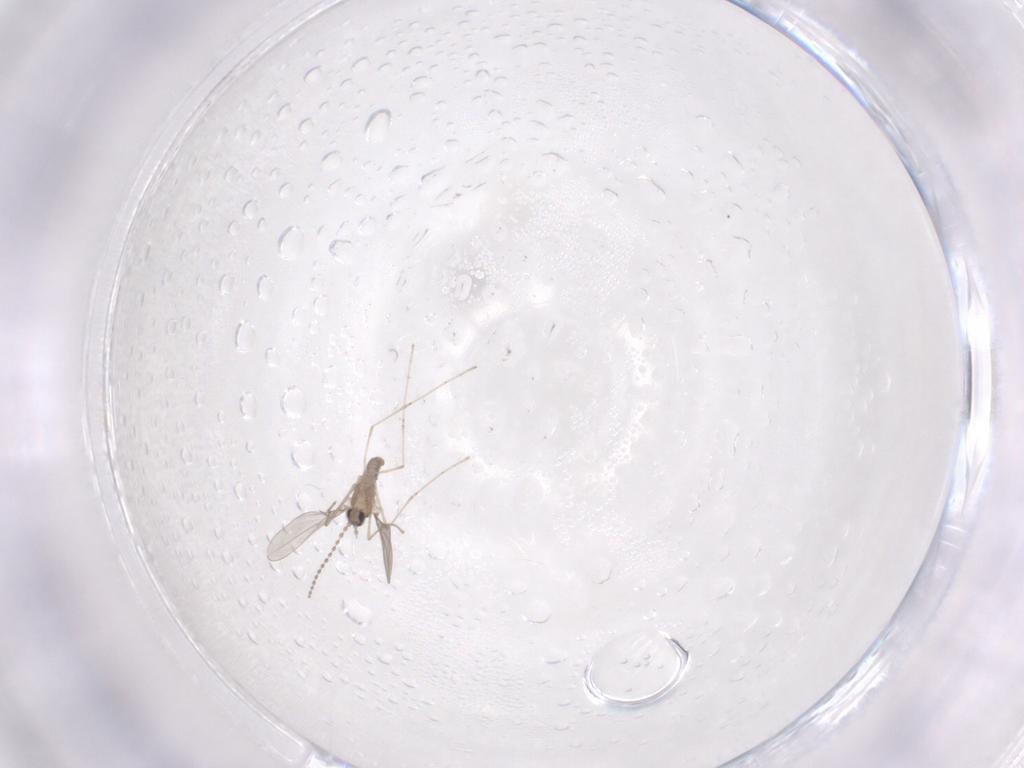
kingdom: Animalia
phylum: Arthropoda
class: Insecta
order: Diptera
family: Cecidomyiidae
